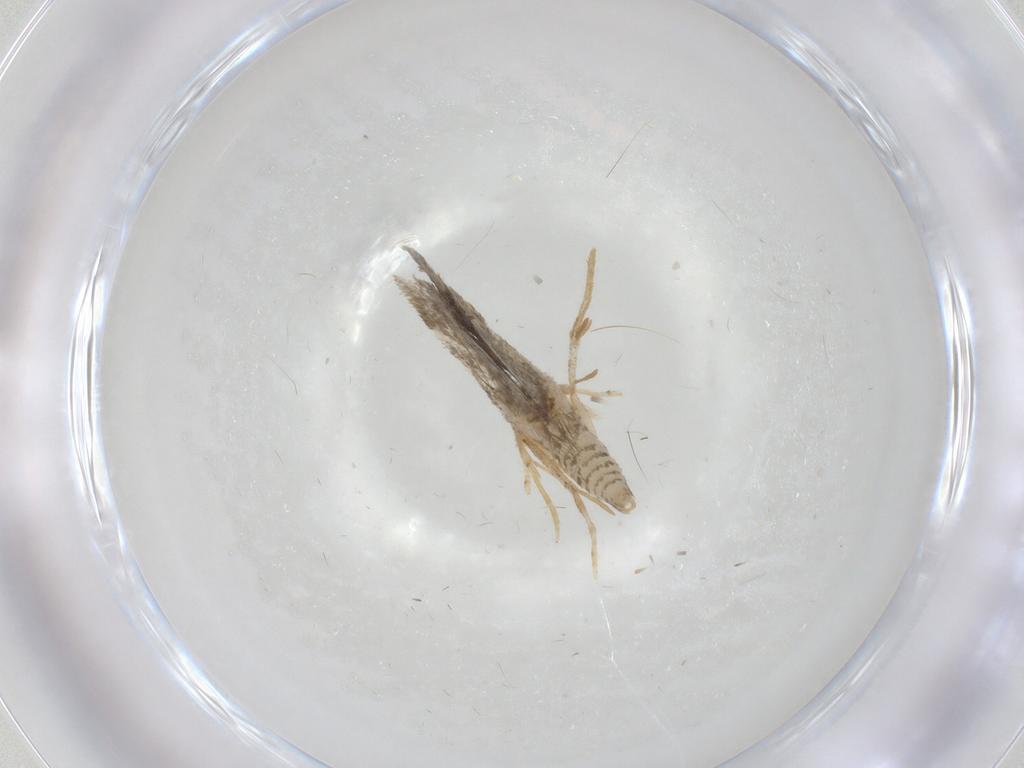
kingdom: Animalia
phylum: Arthropoda
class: Insecta
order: Lepidoptera
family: Psychidae
